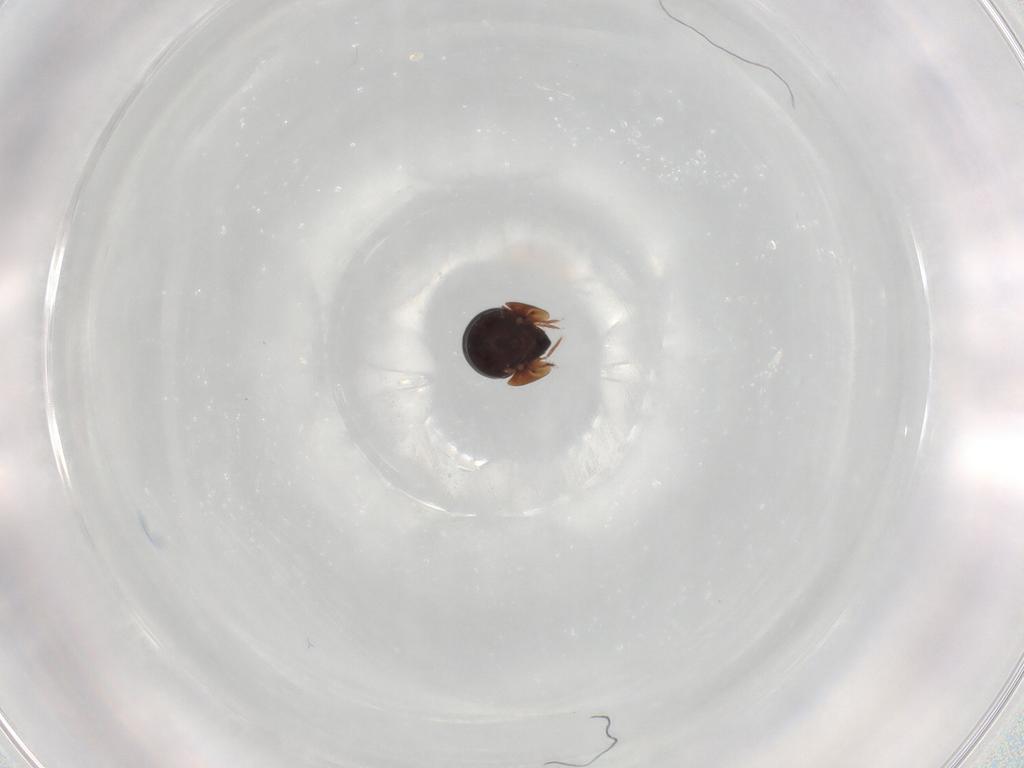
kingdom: Animalia
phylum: Arthropoda
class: Arachnida
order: Sarcoptiformes
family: Ceratozetidae
